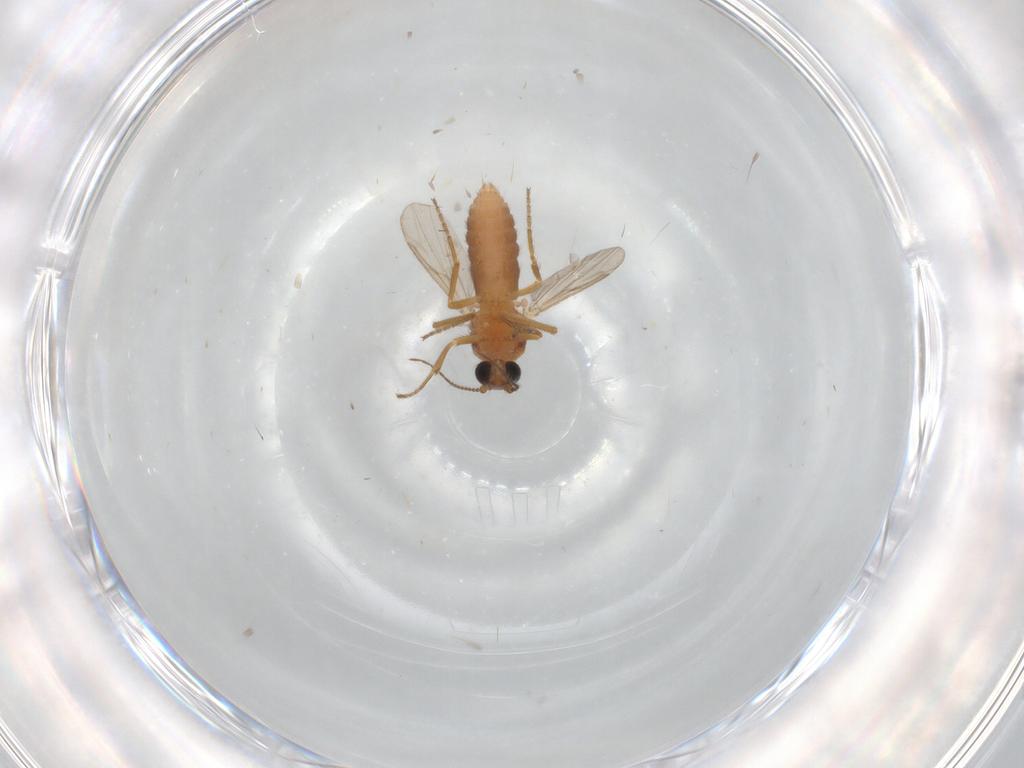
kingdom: Animalia
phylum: Arthropoda
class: Insecta
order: Diptera
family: Ceratopogonidae
